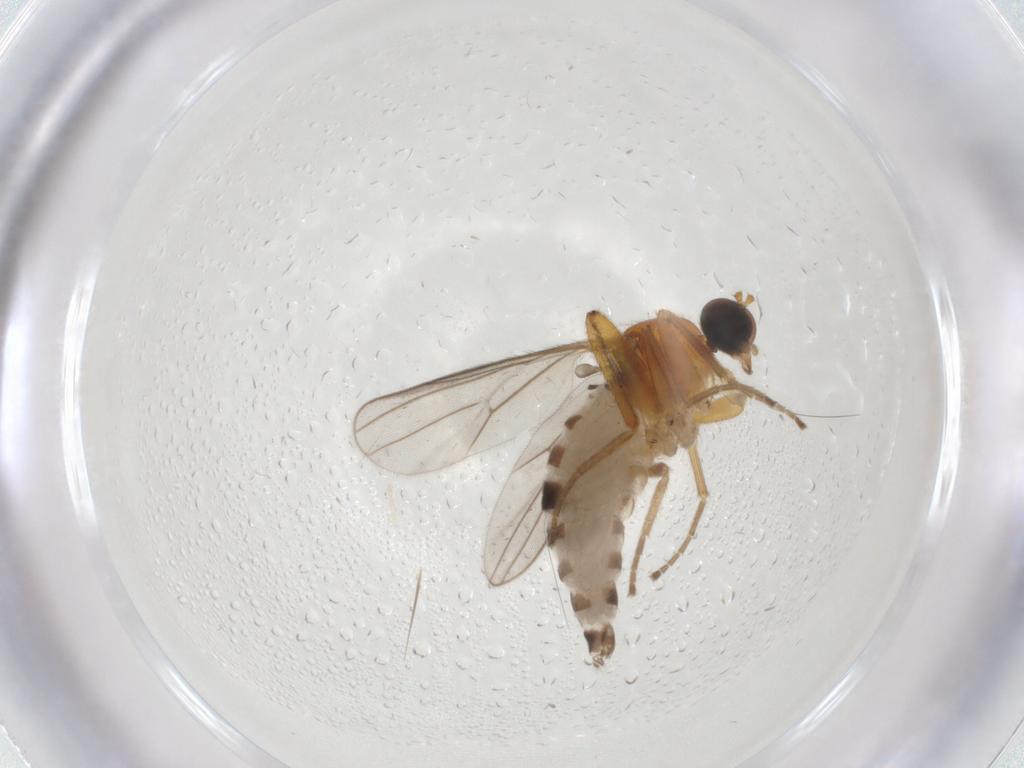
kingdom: Animalia
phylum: Arthropoda
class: Insecta
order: Diptera
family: Hybotidae
